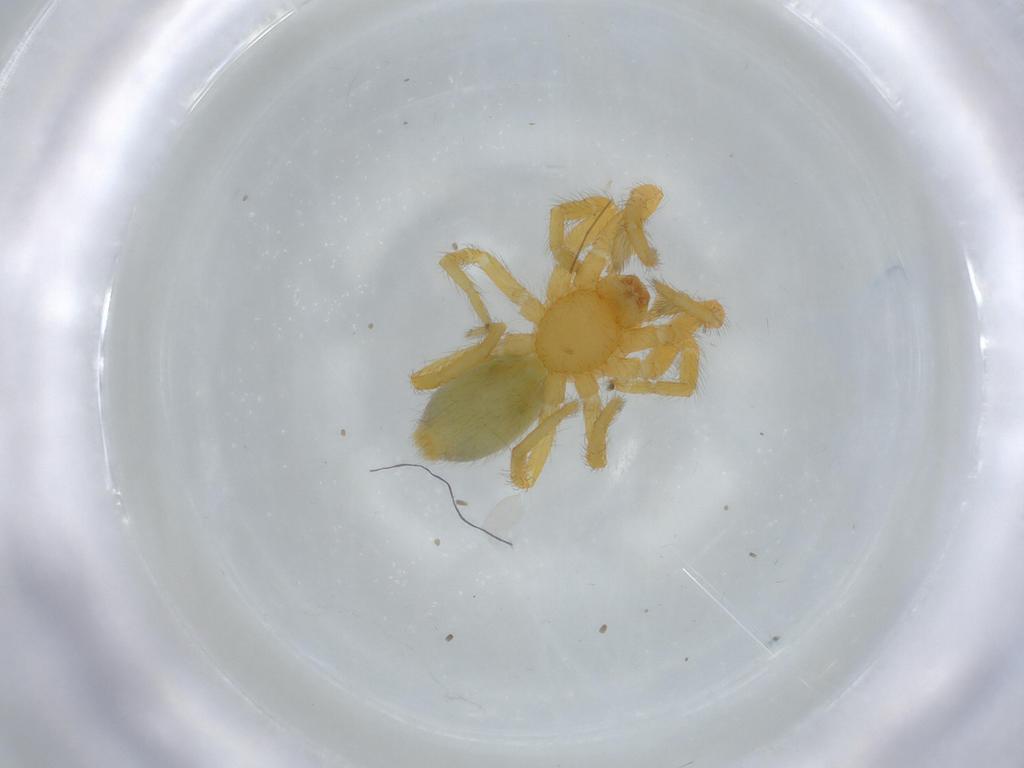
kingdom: Animalia
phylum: Arthropoda
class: Arachnida
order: Araneae
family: Caponiidae
